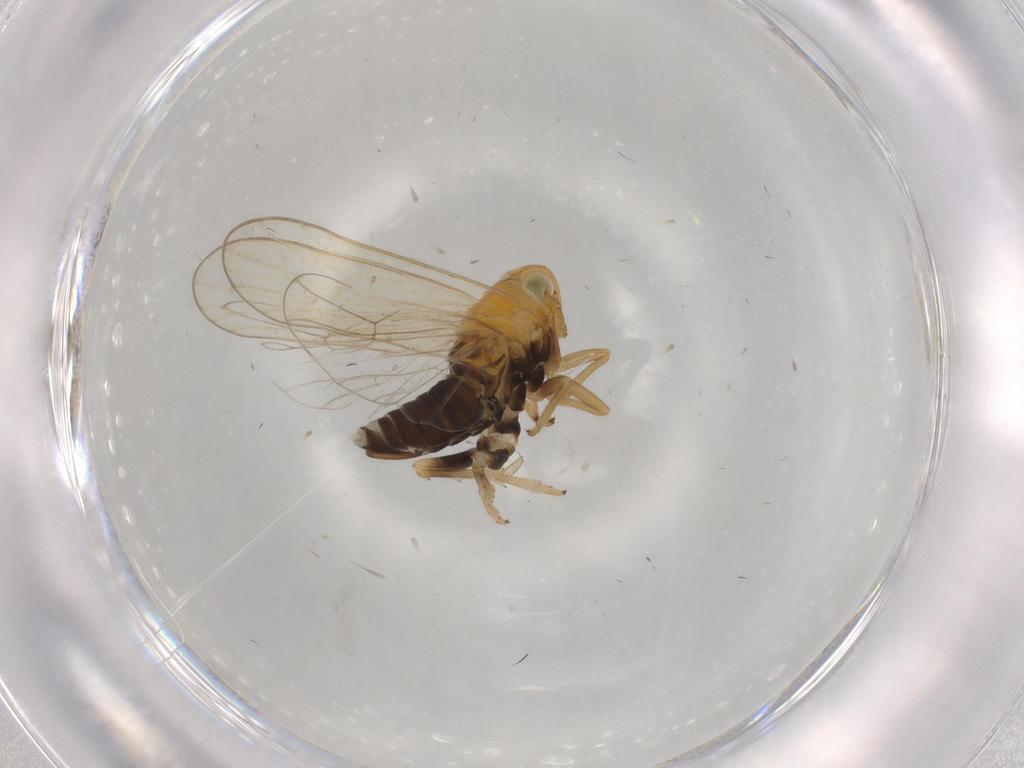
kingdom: Animalia
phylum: Arthropoda
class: Insecta
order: Hemiptera
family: Delphacidae
